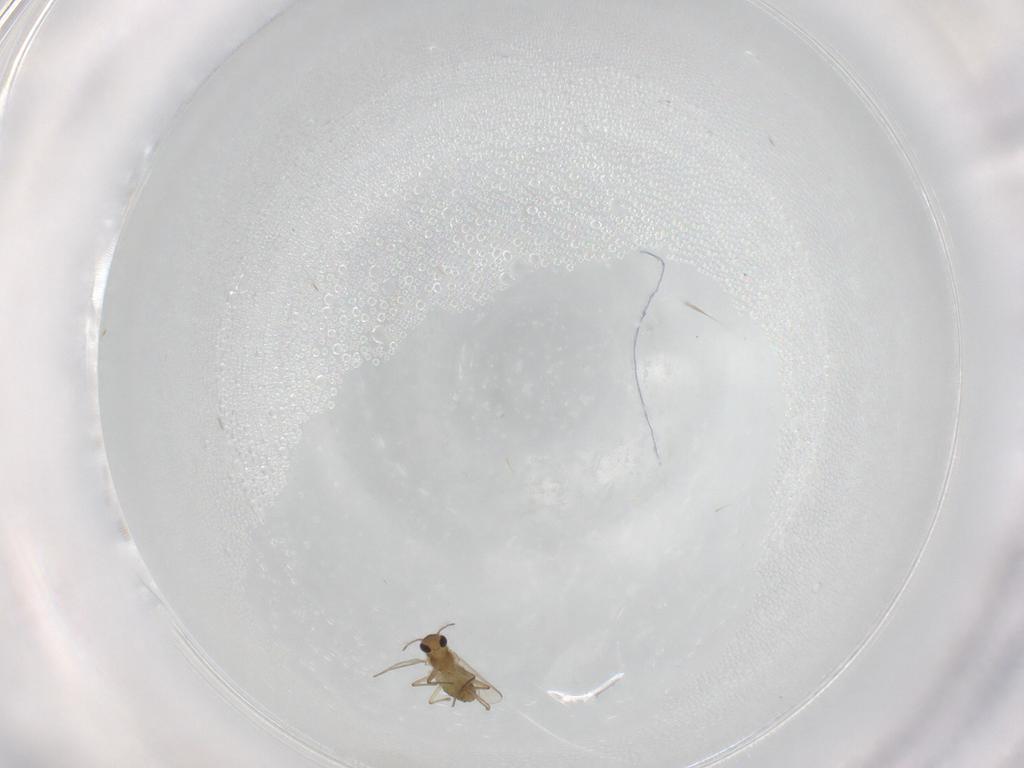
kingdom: Animalia
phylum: Arthropoda
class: Insecta
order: Diptera
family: Chironomidae
